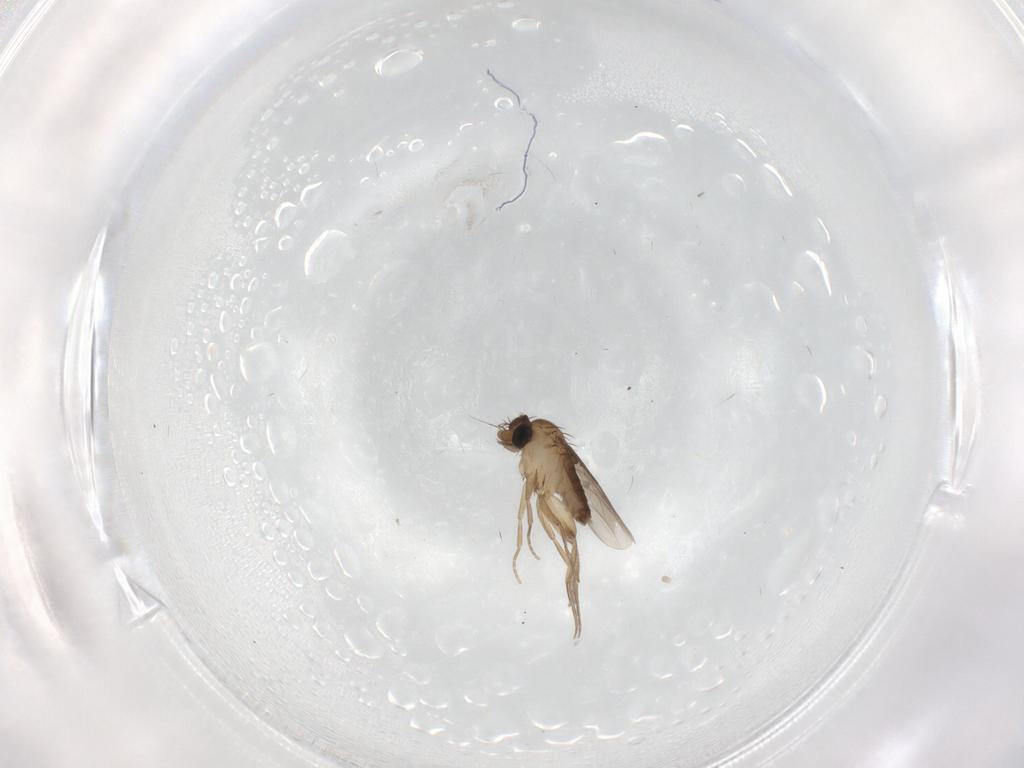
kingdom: Animalia
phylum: Arthropoda
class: Insecta
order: Diptera
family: Phoridae
